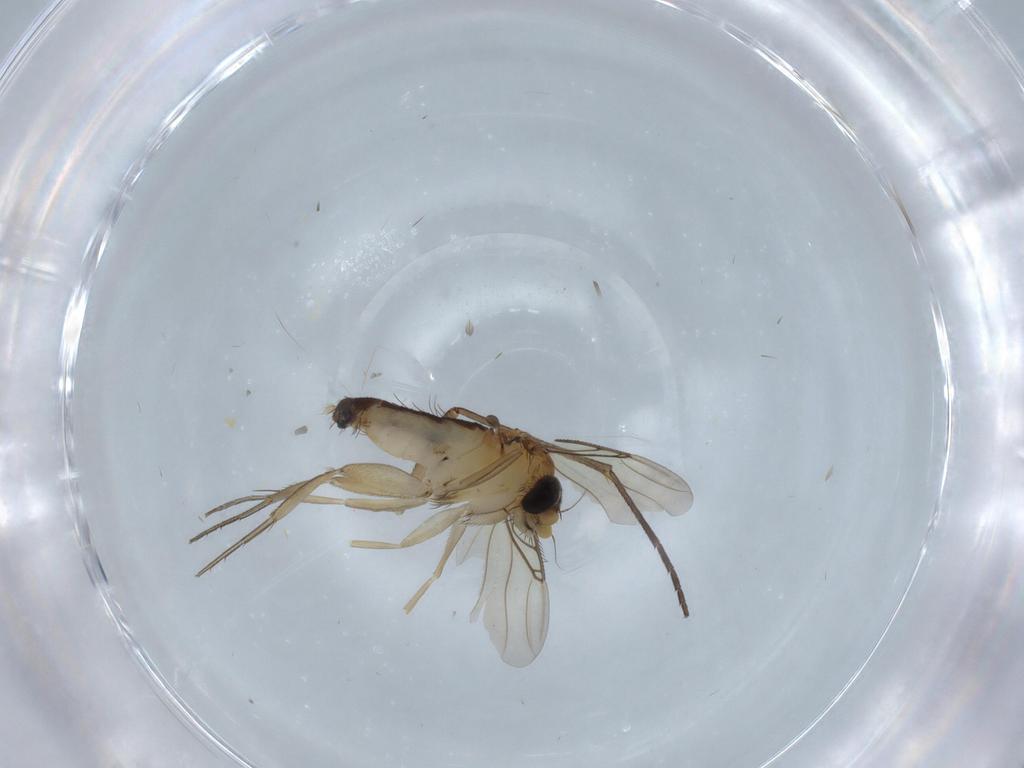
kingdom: Animalia
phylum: Arthropoda
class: Insecta
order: Diptera
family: Phoridae
